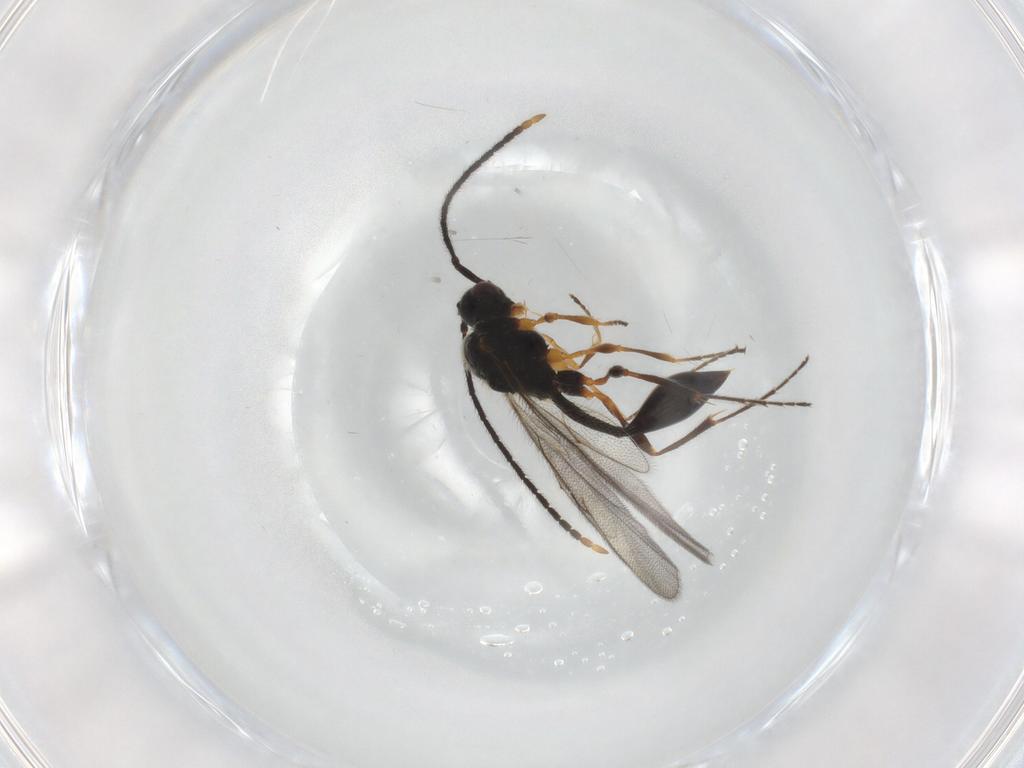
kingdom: Animalia
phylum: Arthropoda
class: Insecta
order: Hymenoptera
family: Diapriidae
